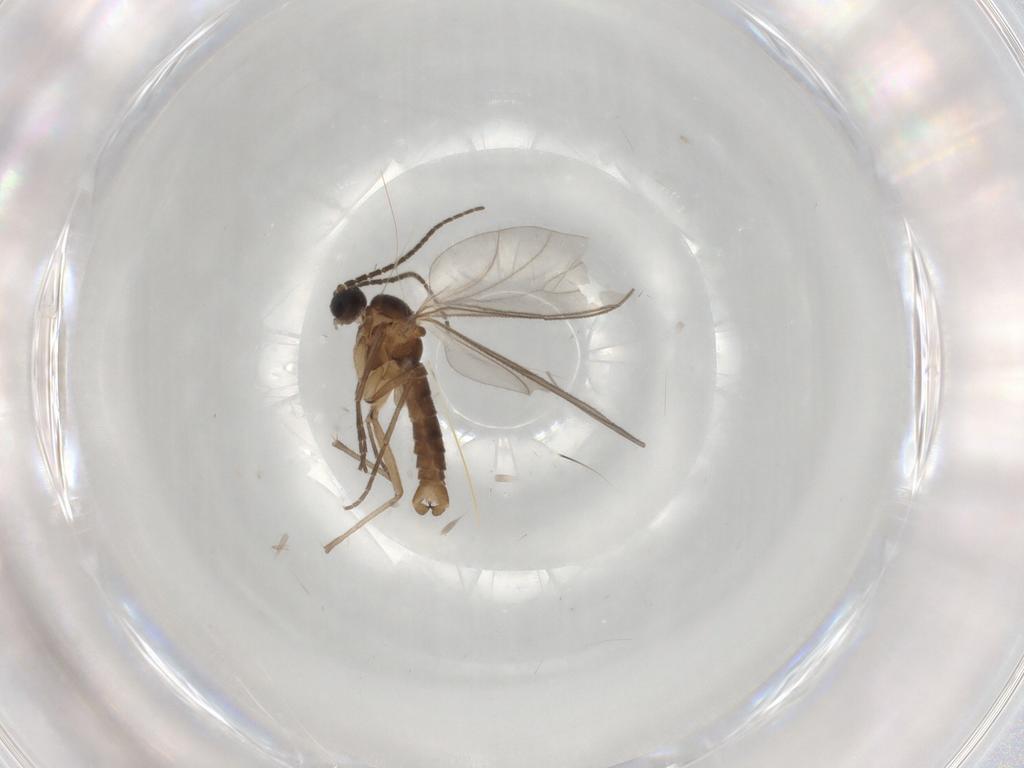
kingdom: Animalia
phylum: Arthropoda
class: Insecta
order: Diptera
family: Sciaridae
